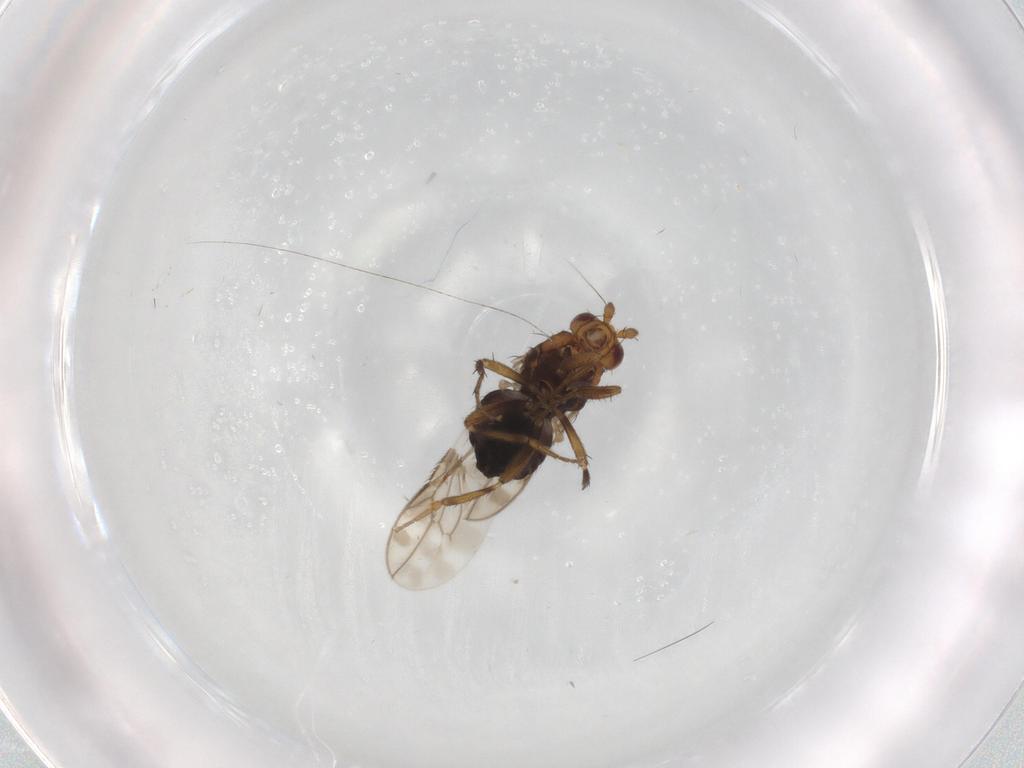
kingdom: Animalia
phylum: Arthropoda
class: Insecta
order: Diptera
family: Sphaeroceridae
